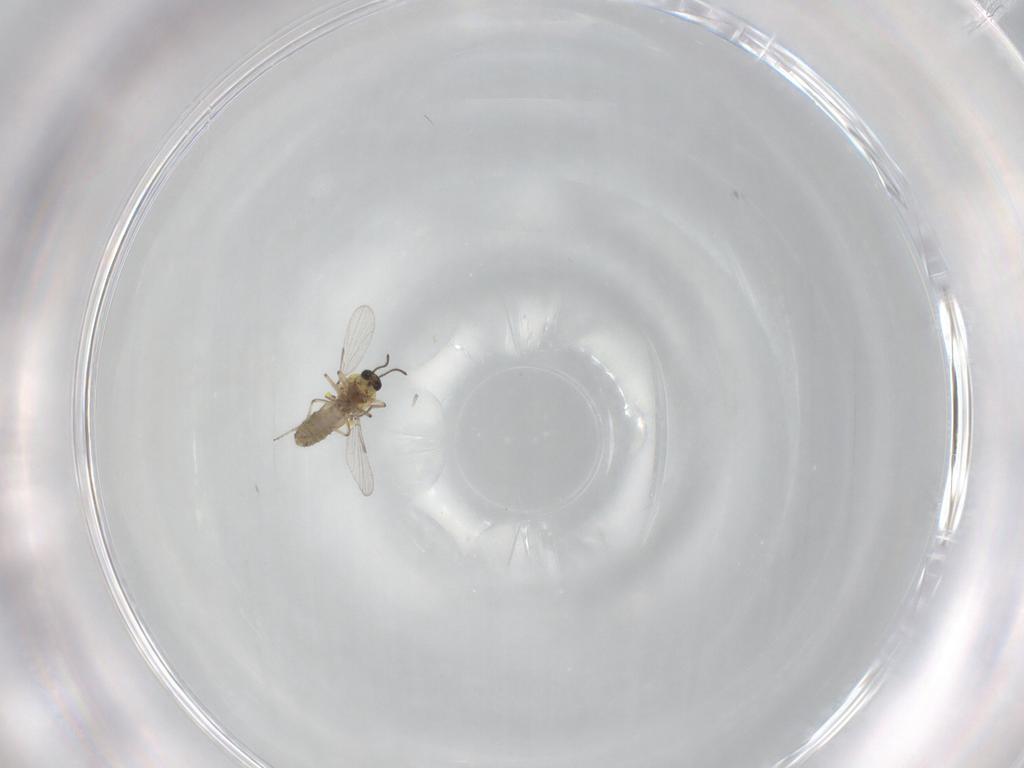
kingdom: Animalia
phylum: Arthropoda
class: Insecta
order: Diptera
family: Ceratopogonidae
